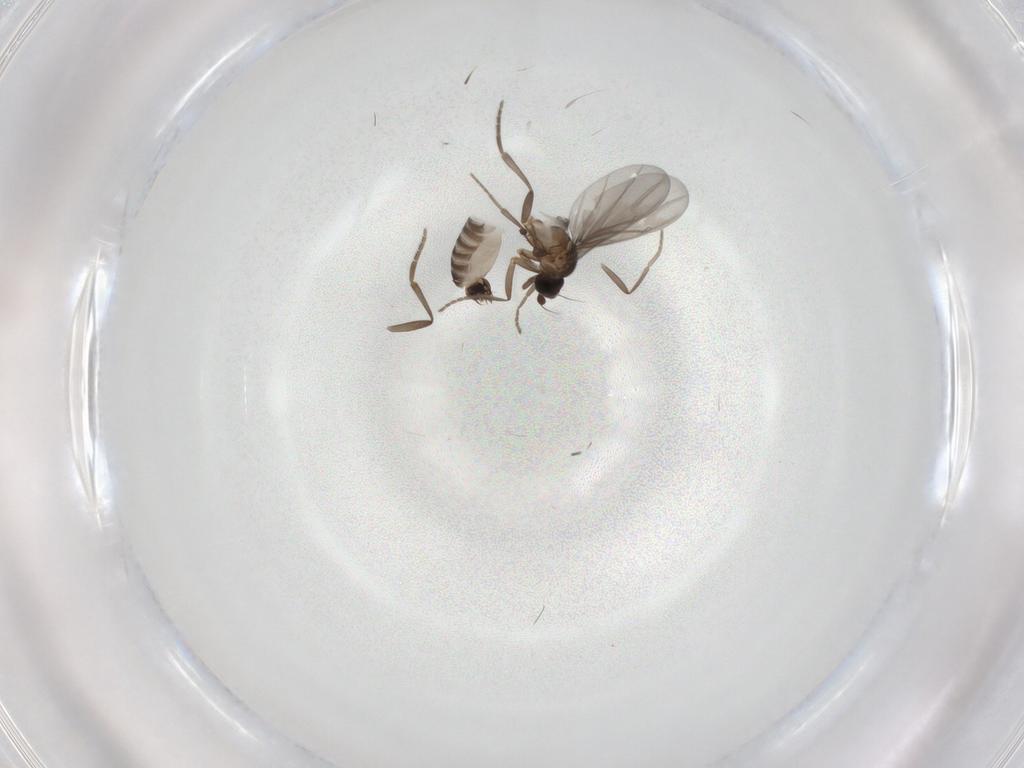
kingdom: Animalia
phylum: Arthropoda
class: Insecta
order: Diptera
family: Phoridae
